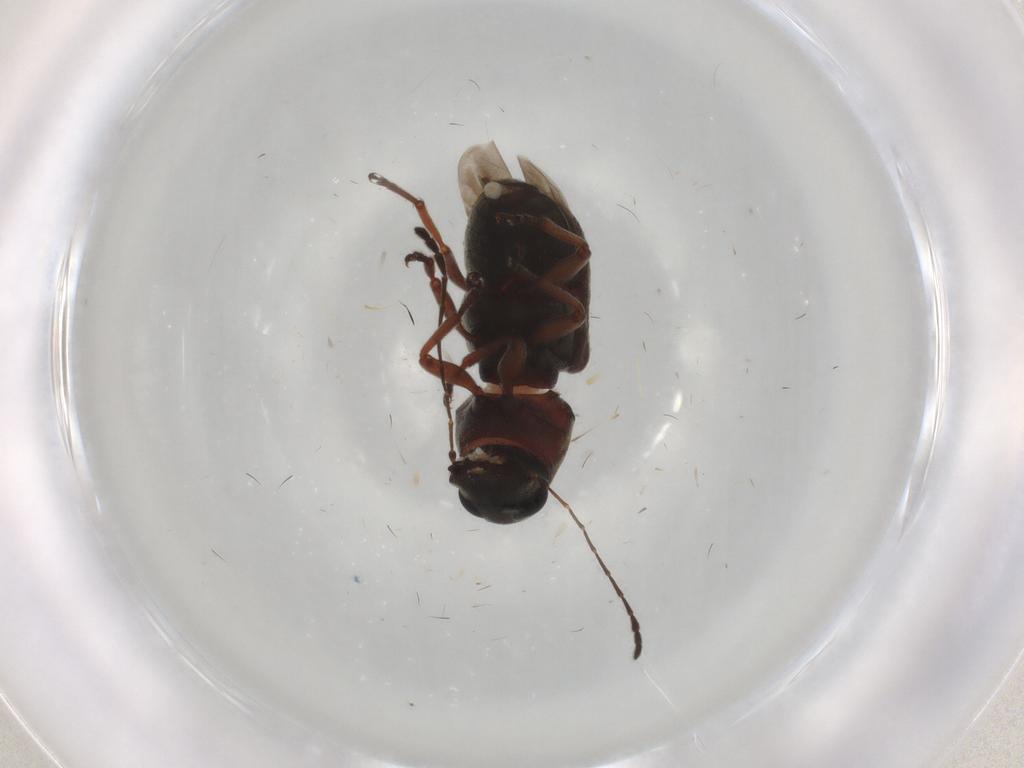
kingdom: Animalia
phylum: Arthropoda
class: Insecta
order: Coleoptera
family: Anthribidae
